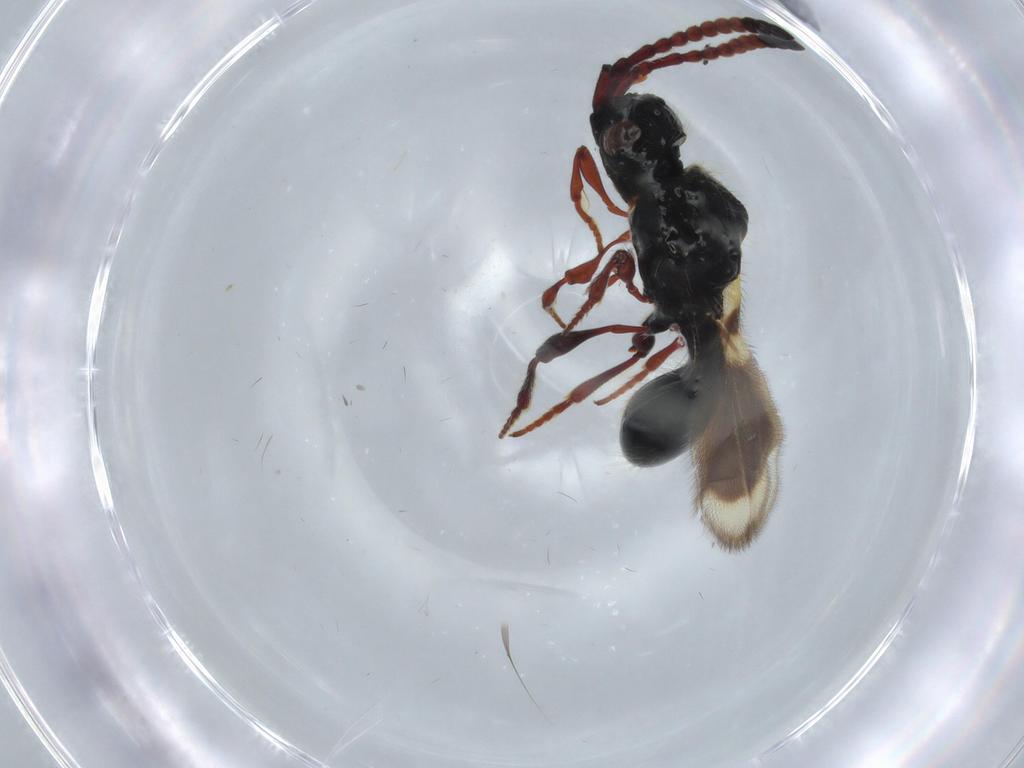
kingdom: Animalia
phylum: Arthropoda
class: Insecta
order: Hymenoptera
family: Diapriidae
